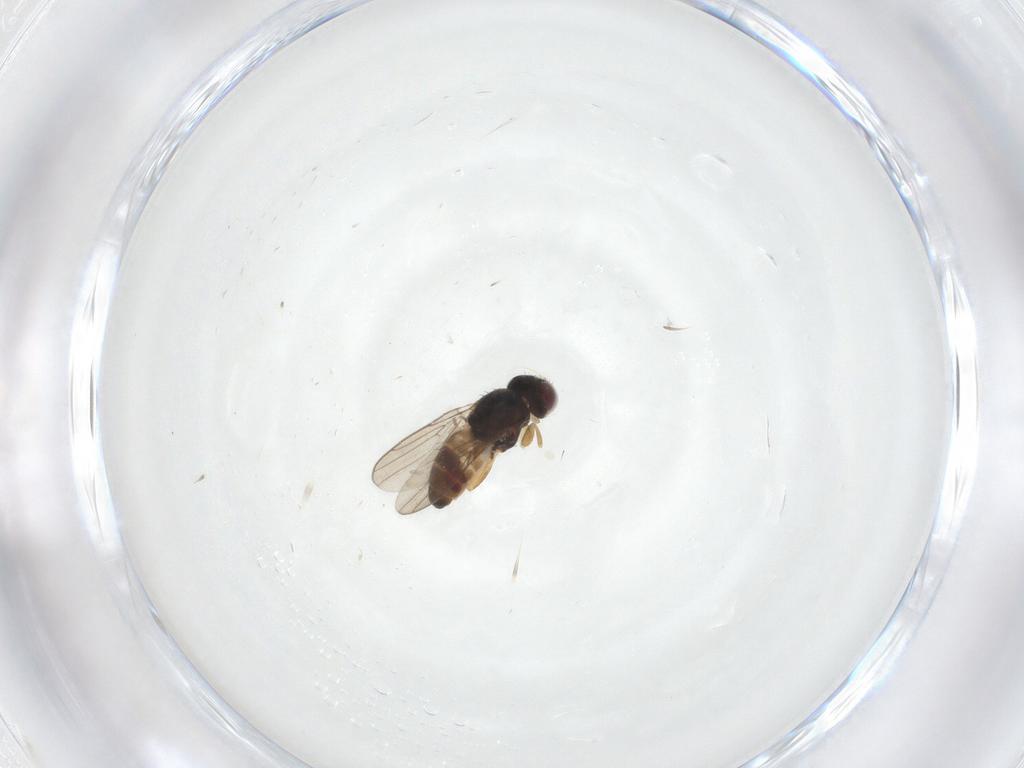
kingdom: Animalia
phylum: Arthropoda
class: Insecta
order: Diptera
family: Chloropidae
